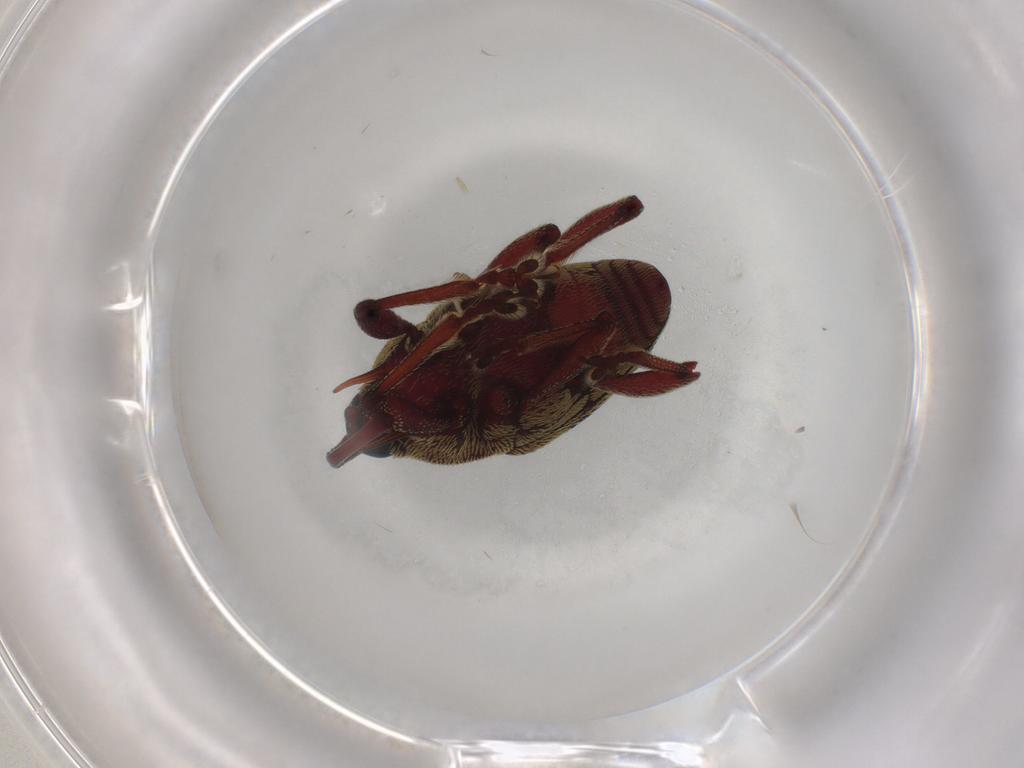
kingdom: Animalia
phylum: Arthropoda
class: Insecta
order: Coleoptera
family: Curculionidae
